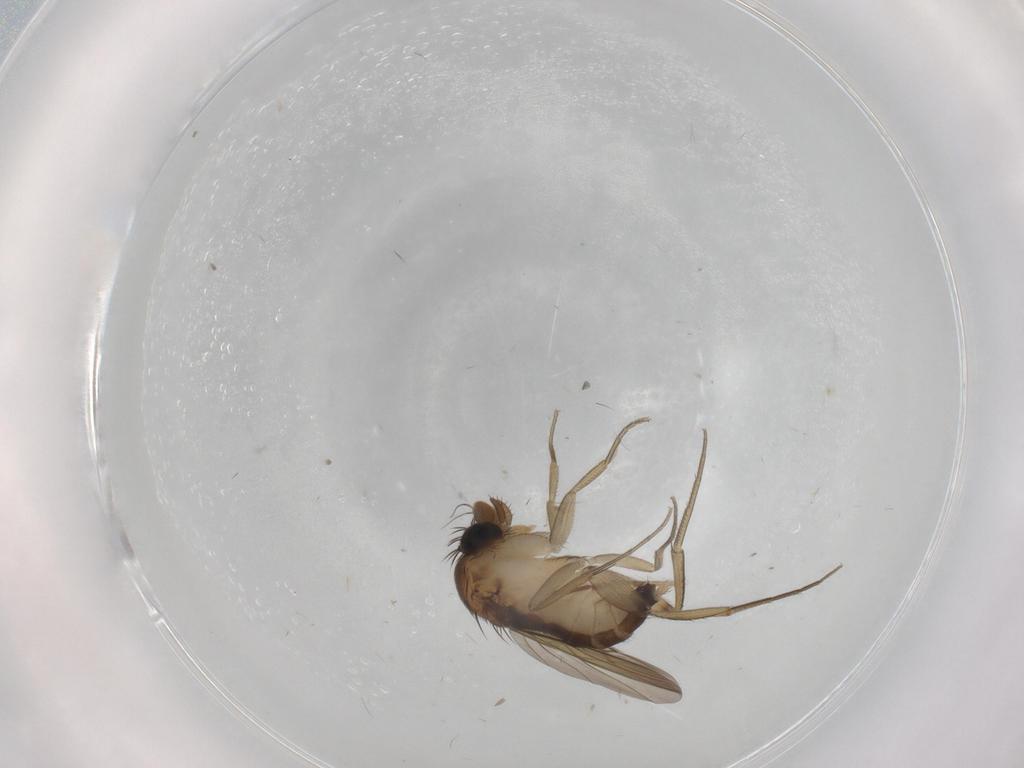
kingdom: Animalia
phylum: Arthropoda
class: Insecta
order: Diptera
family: Phoridae
